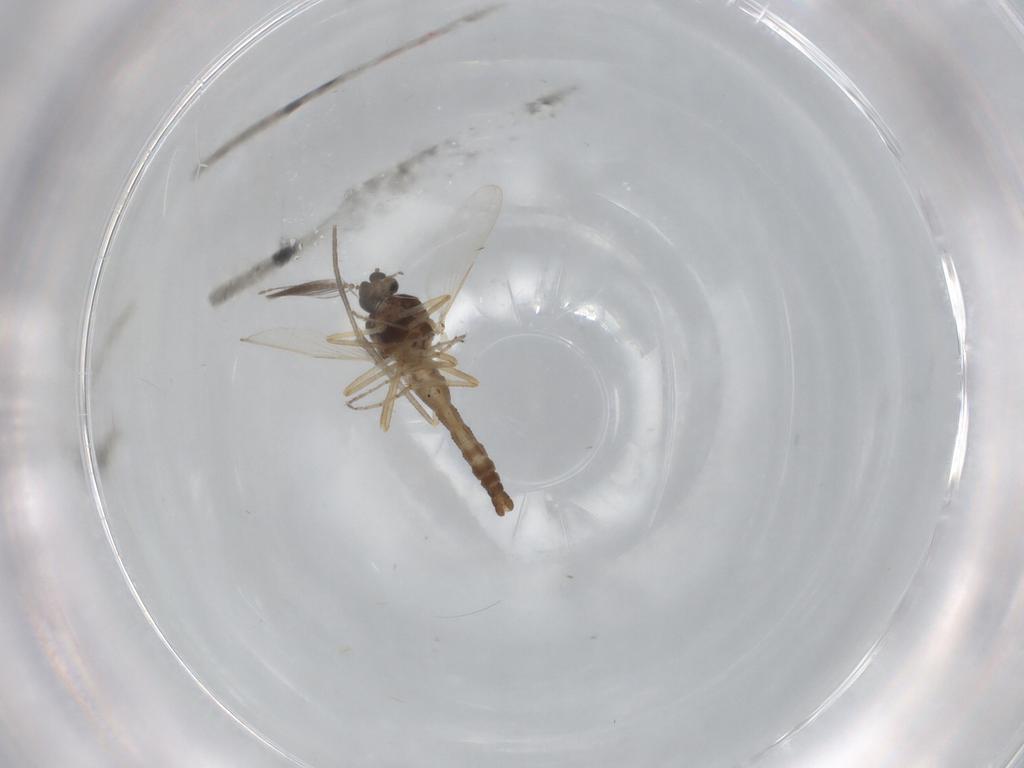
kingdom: Animalia
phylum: Arthropoda
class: Insecta
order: Diptera
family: Ceratopogonidae
